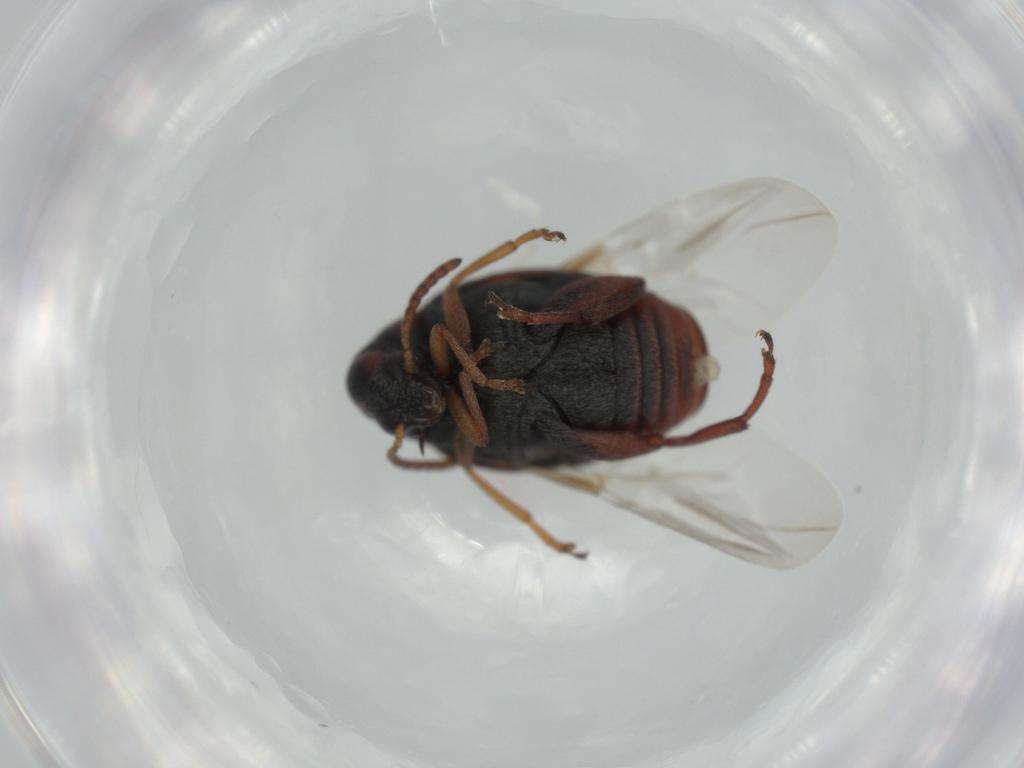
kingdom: Animalia
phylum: Arthropoda
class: Insecta
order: Coleoptera
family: Chrysomelidae
